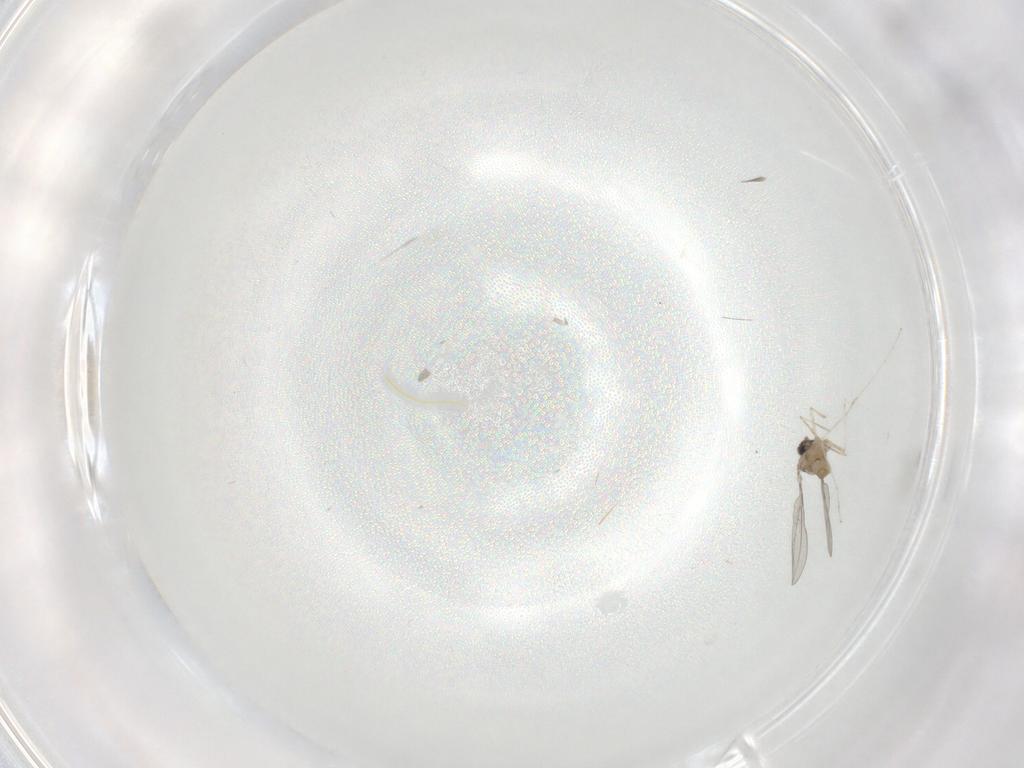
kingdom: Animalia
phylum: Arthropoda
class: Insecta
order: Diptera
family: Cecidomyiidae
